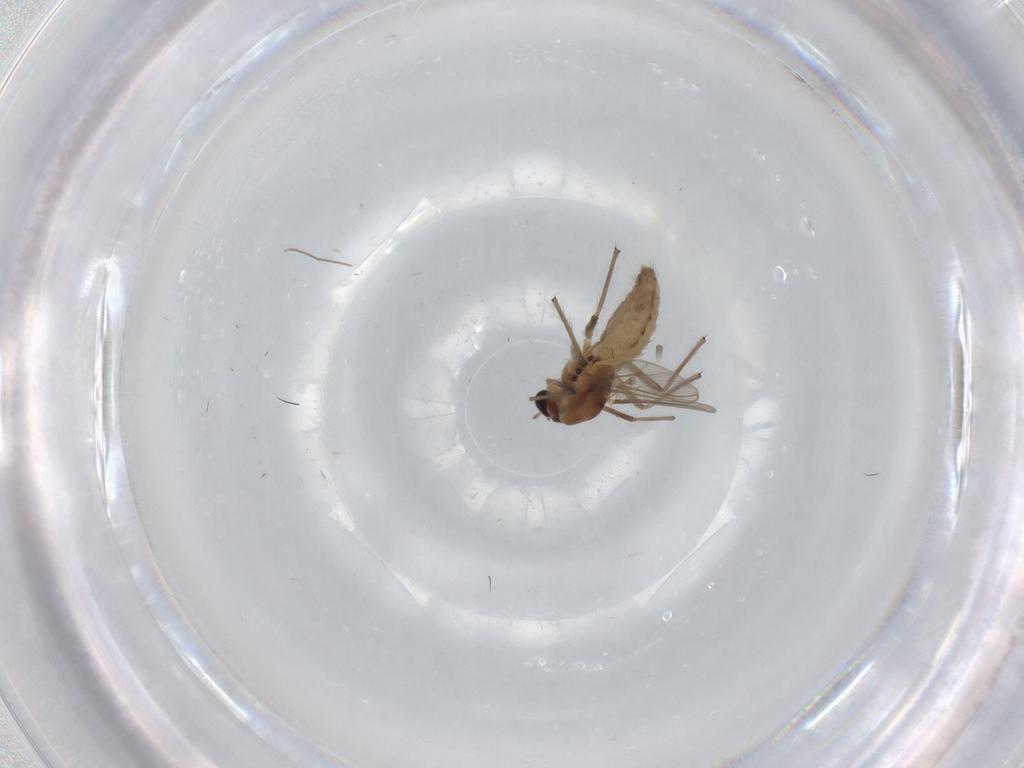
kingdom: Animalia
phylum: Arthropoda
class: Insecta
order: Diptera
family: Chironomidae
